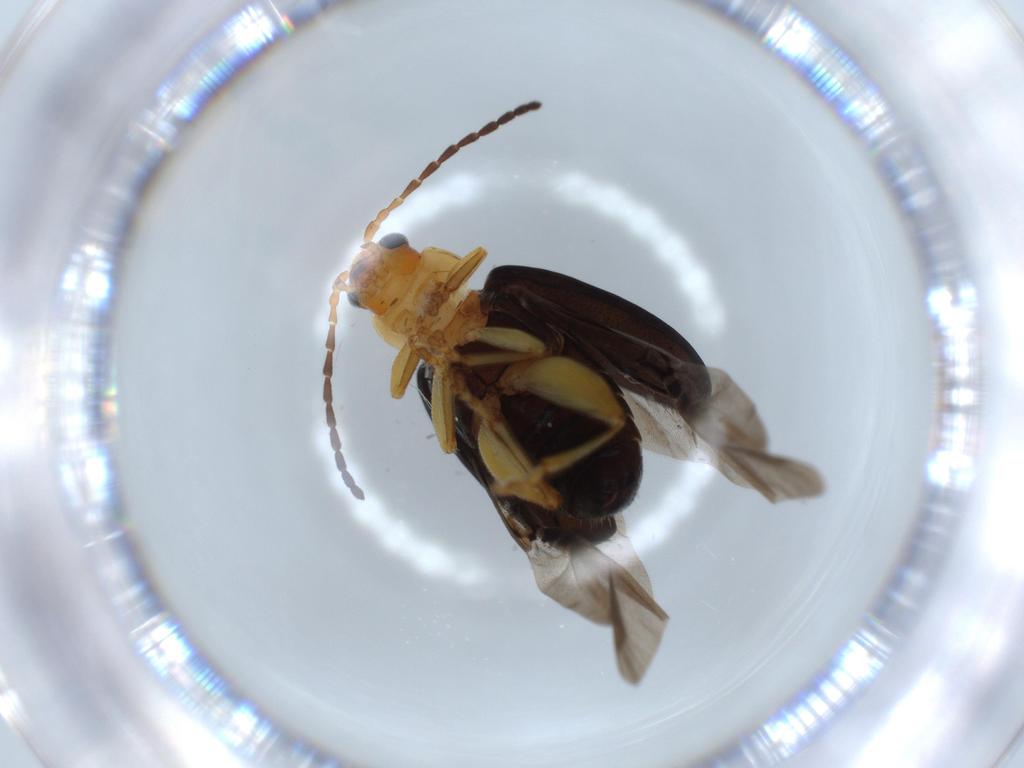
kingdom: Animalia
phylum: Arthropoda
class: Insecta
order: Coleoptera
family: Chrysomelidae
